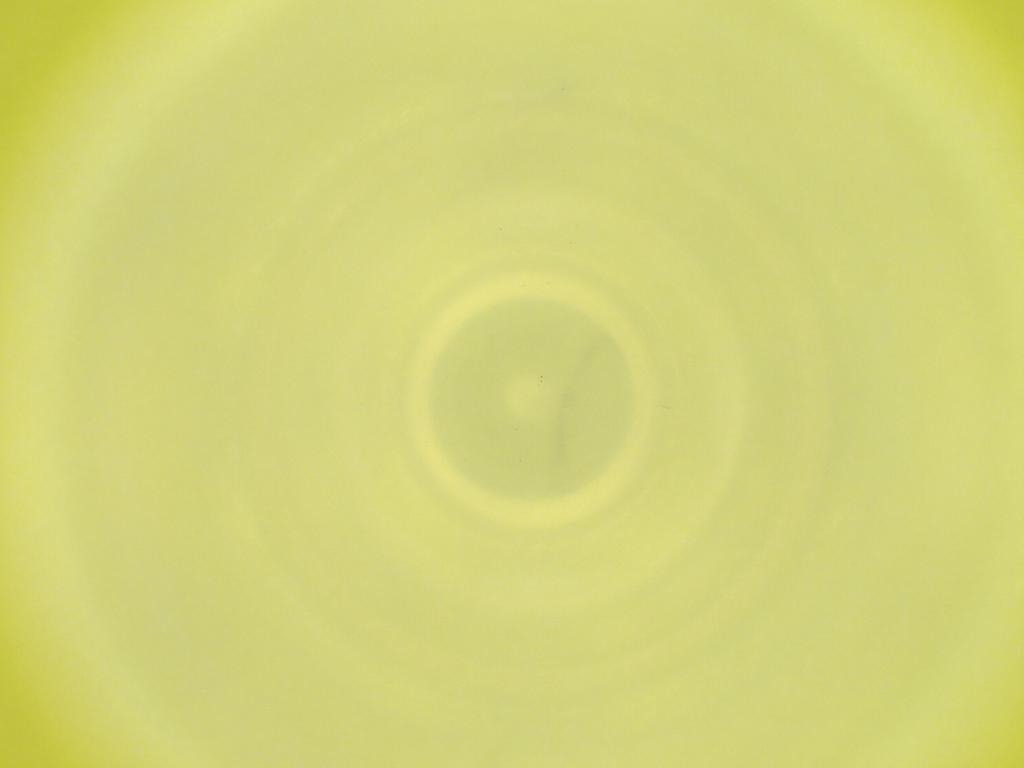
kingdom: Animalia
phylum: Arthropoda
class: Insecta
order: Diptera
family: Cecidomyiidae
